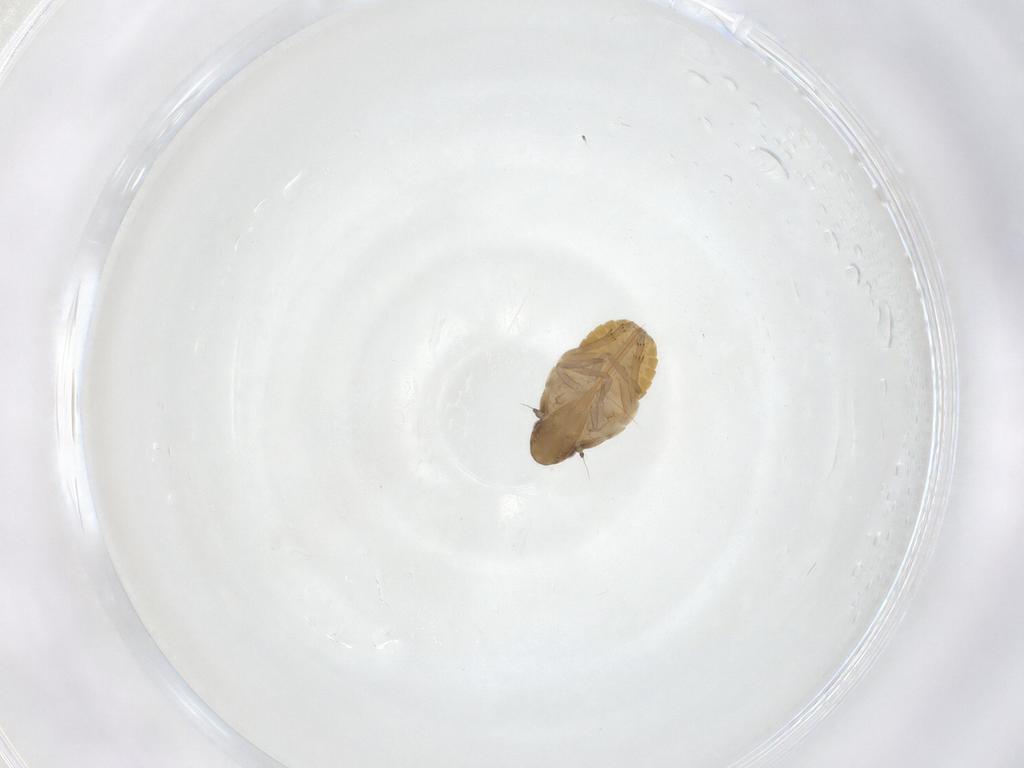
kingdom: Animalia
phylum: Arthropoda
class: Insecta
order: Hemiptera
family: Flatidae
